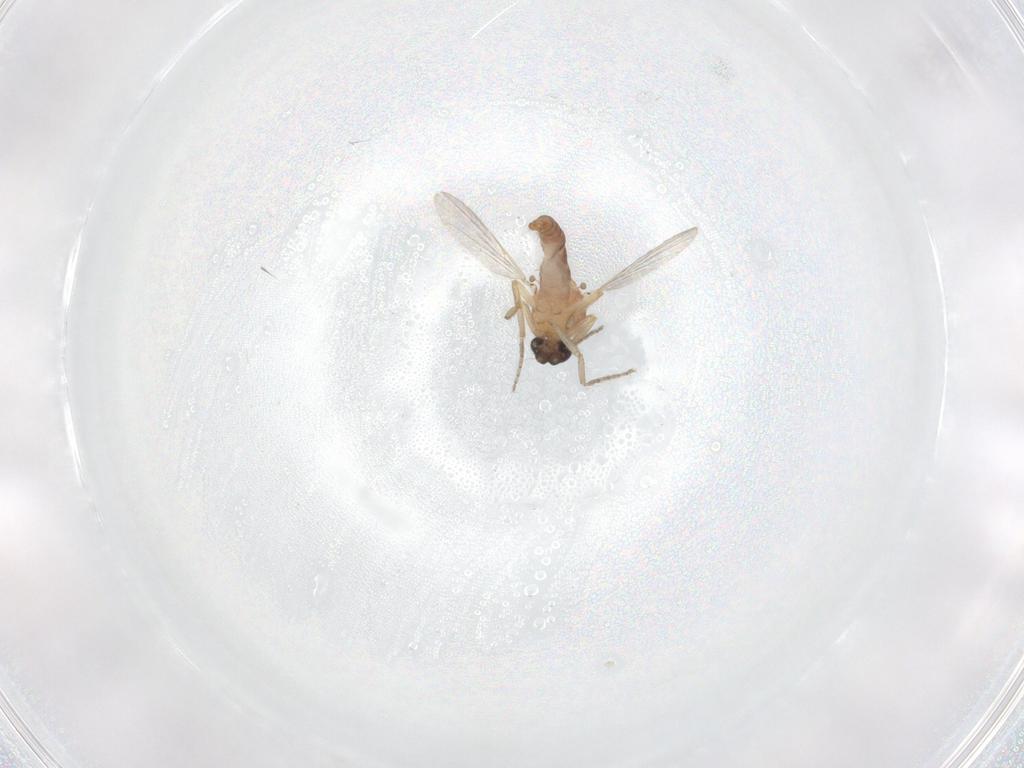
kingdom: Animalia
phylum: Arthropoda
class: Insecta
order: Diptera
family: Ceratopogonidae
